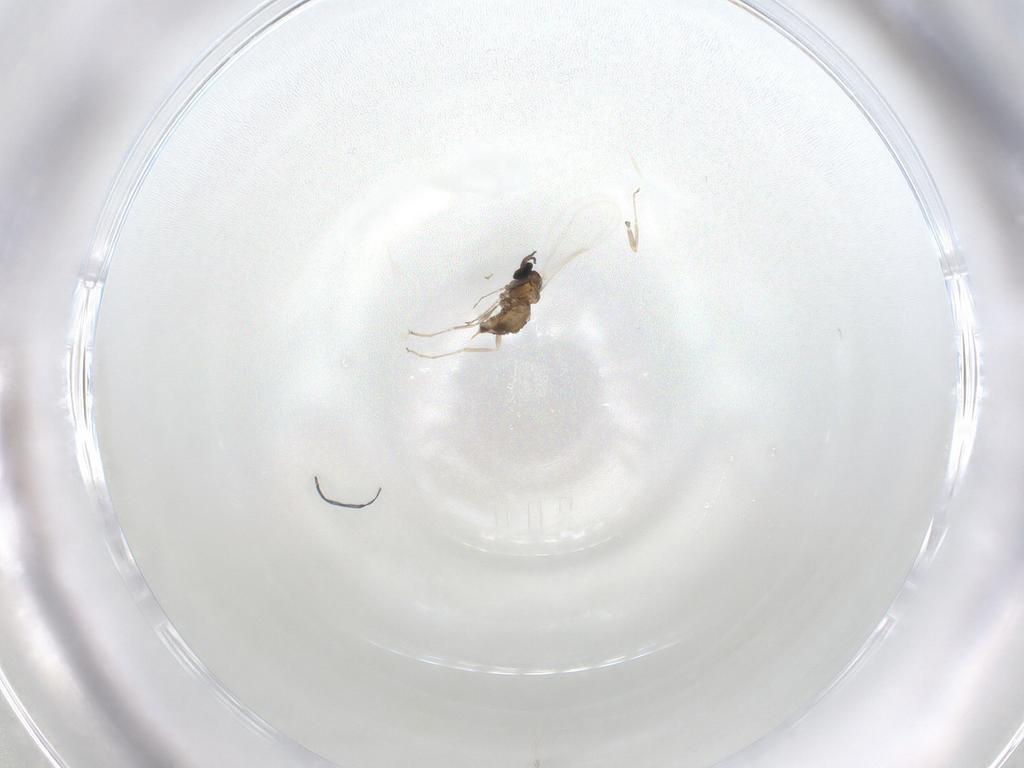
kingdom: Animalia
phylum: Arthropoda
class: Insecta
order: Diptera
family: Cecidomyiidae
